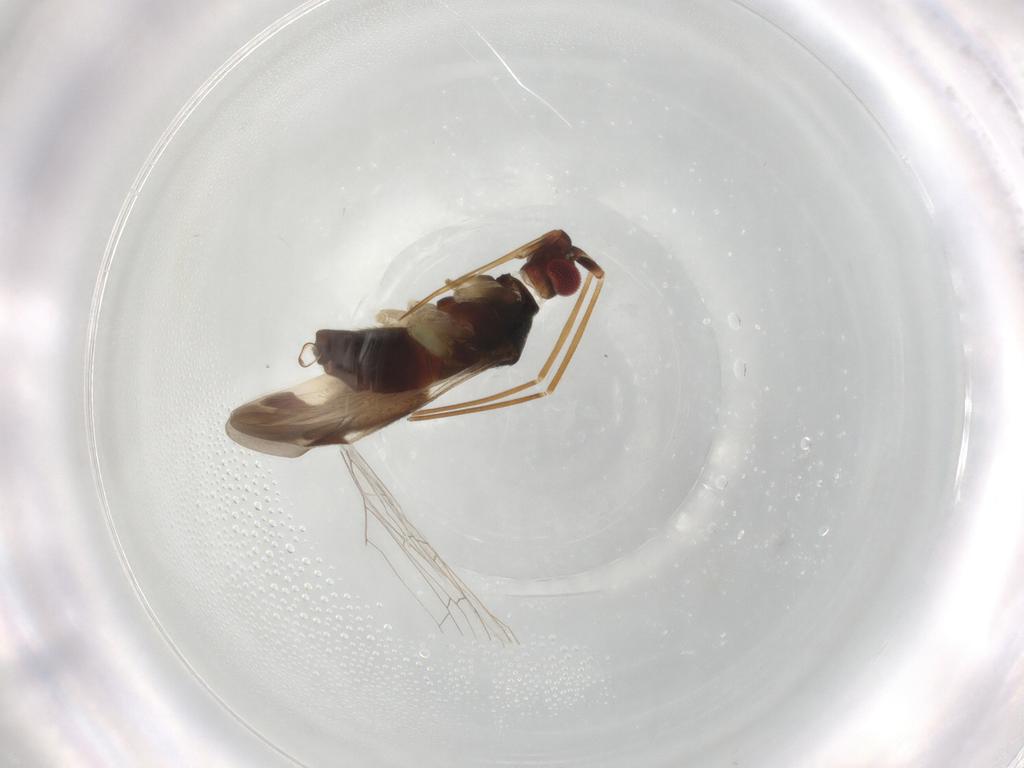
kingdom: Animalia
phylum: Arthropoda
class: Insecta
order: Hemiptera
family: Miridae
